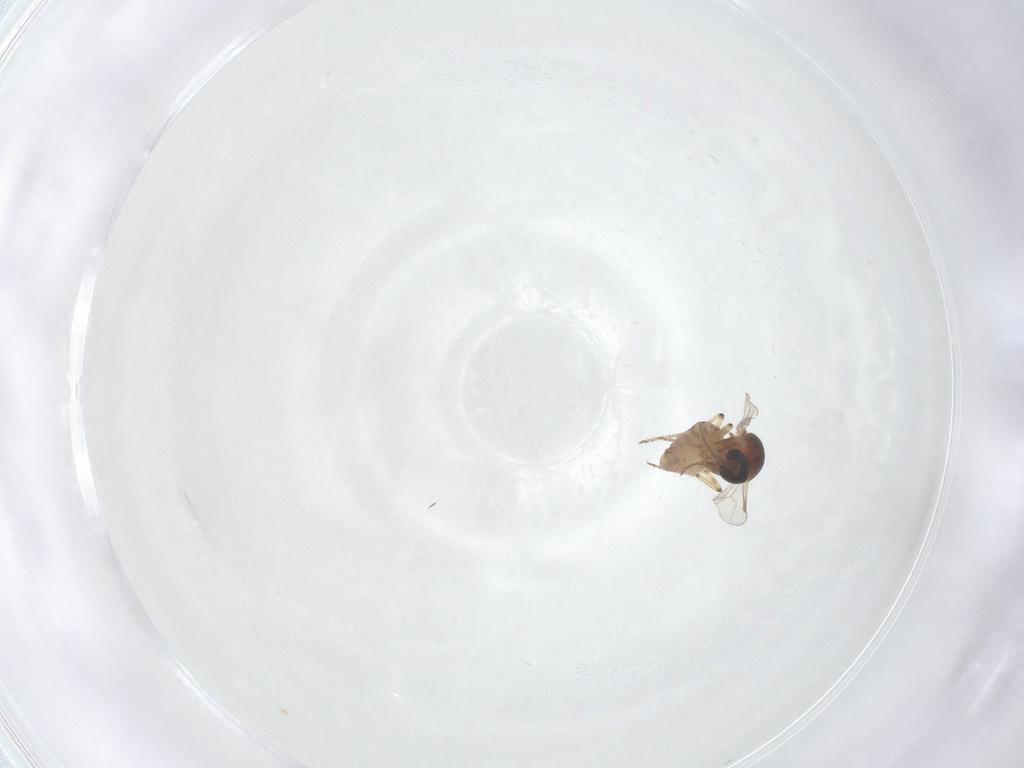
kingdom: Animalia
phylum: Arthropoda
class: Insecta
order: Diptera
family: Ceratopogonidae
